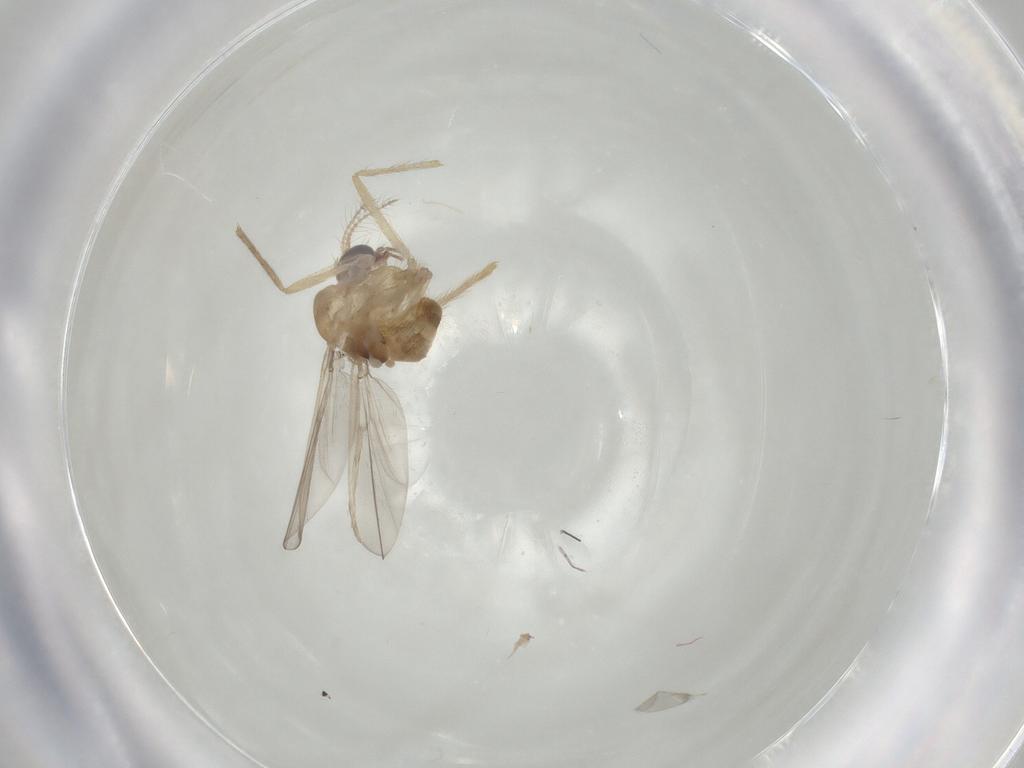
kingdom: Animalia
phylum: Arthropoda
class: Insecta
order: Diptera
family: Chironomidae
